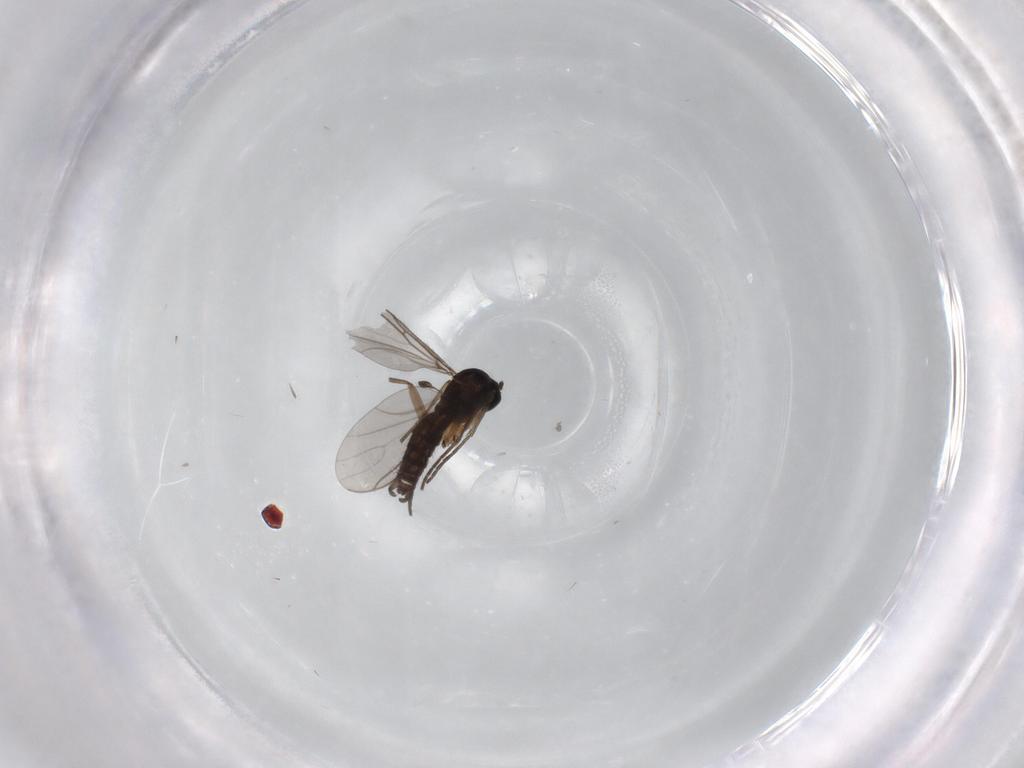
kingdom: Animalia
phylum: Arthropoda
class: Insecta
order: Diptera
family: Sciaridae
